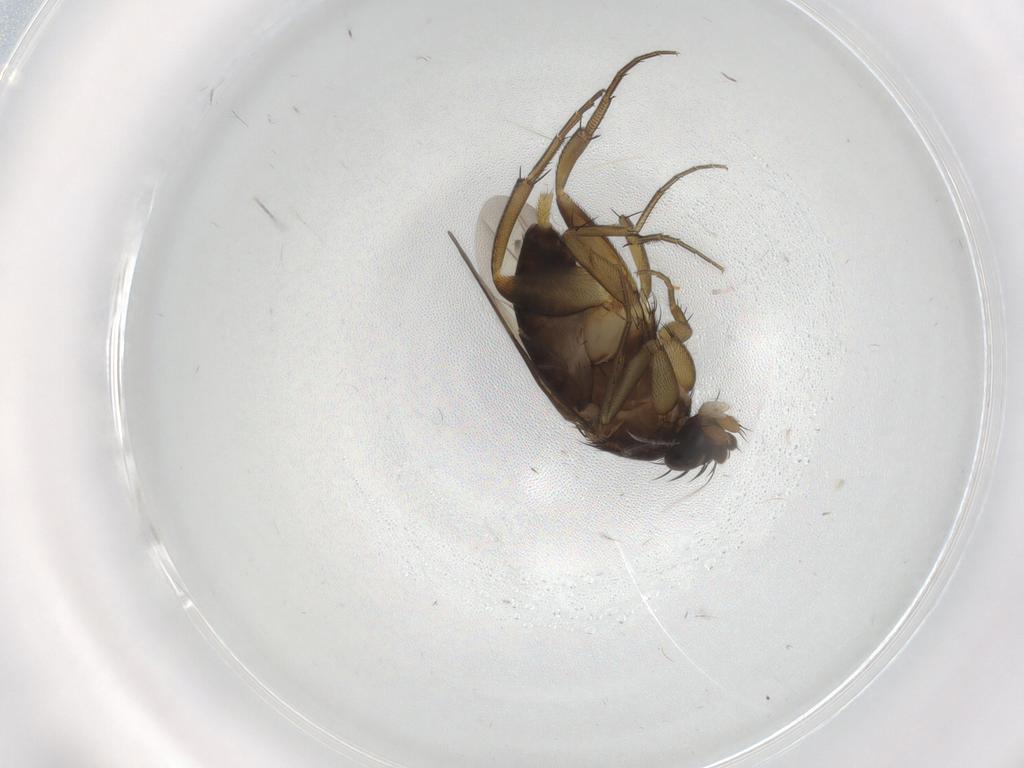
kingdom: Animalia
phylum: Arthropoda
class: Insecta
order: Diptera
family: Phoridae
